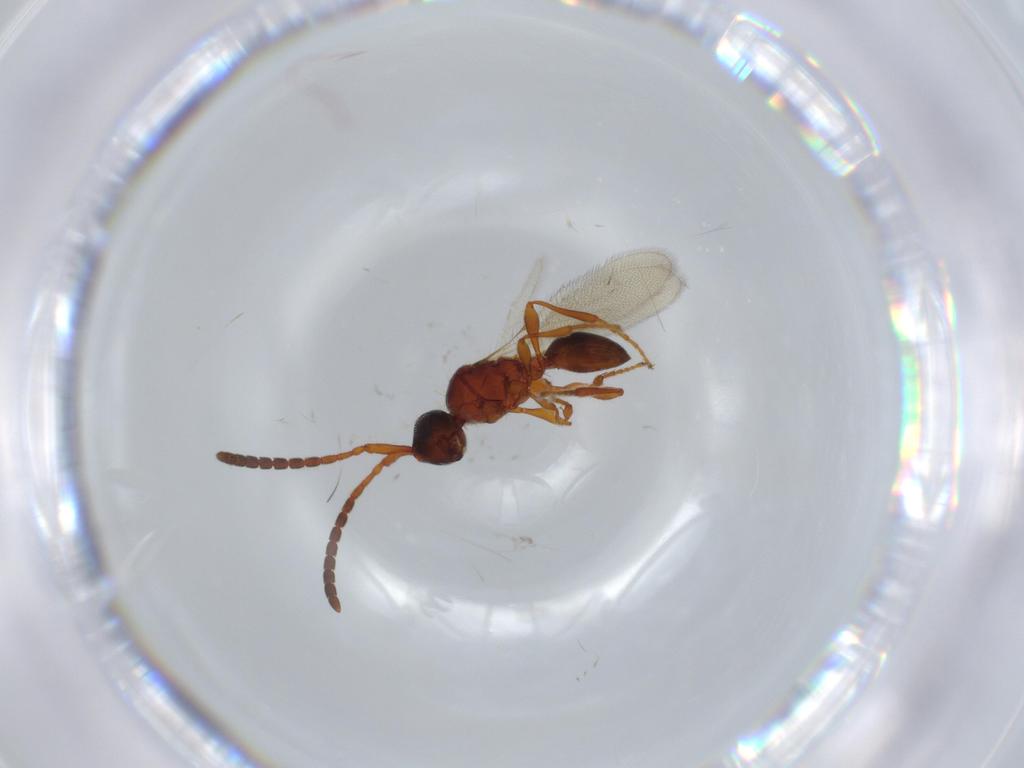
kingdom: Animalia
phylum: Arthropoda
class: Insecta
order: Hymenoptera
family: Diapriidae
